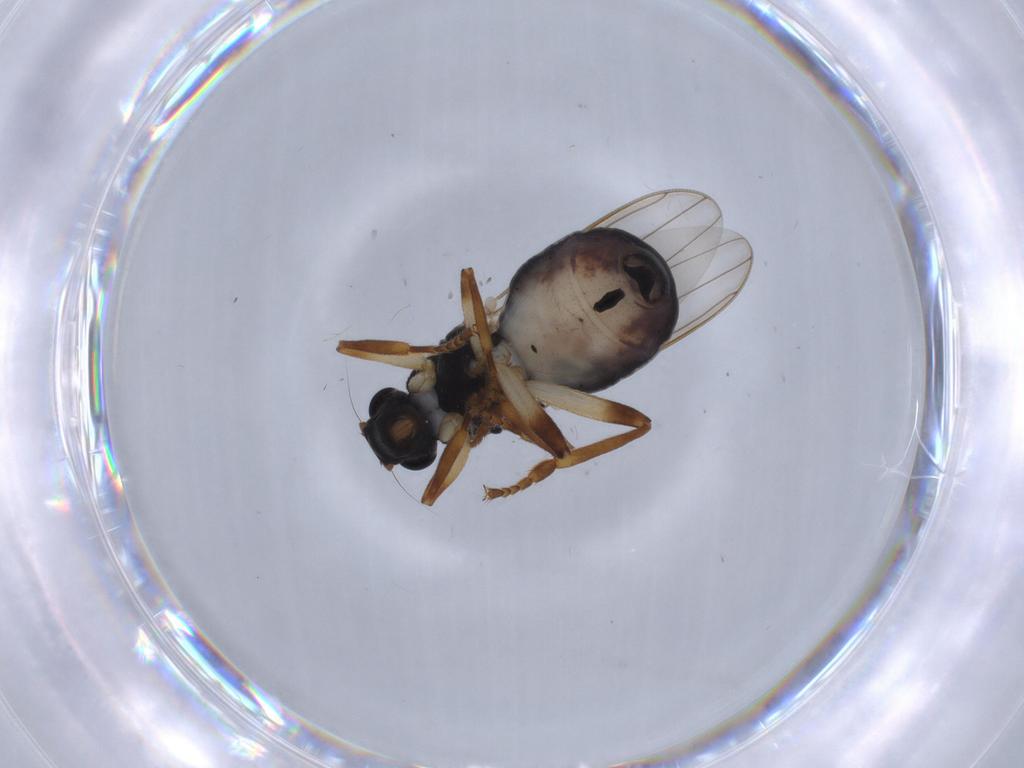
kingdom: Animalia
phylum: Arthropoda
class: Insecta
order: Diptera
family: Sphaeroceridae
